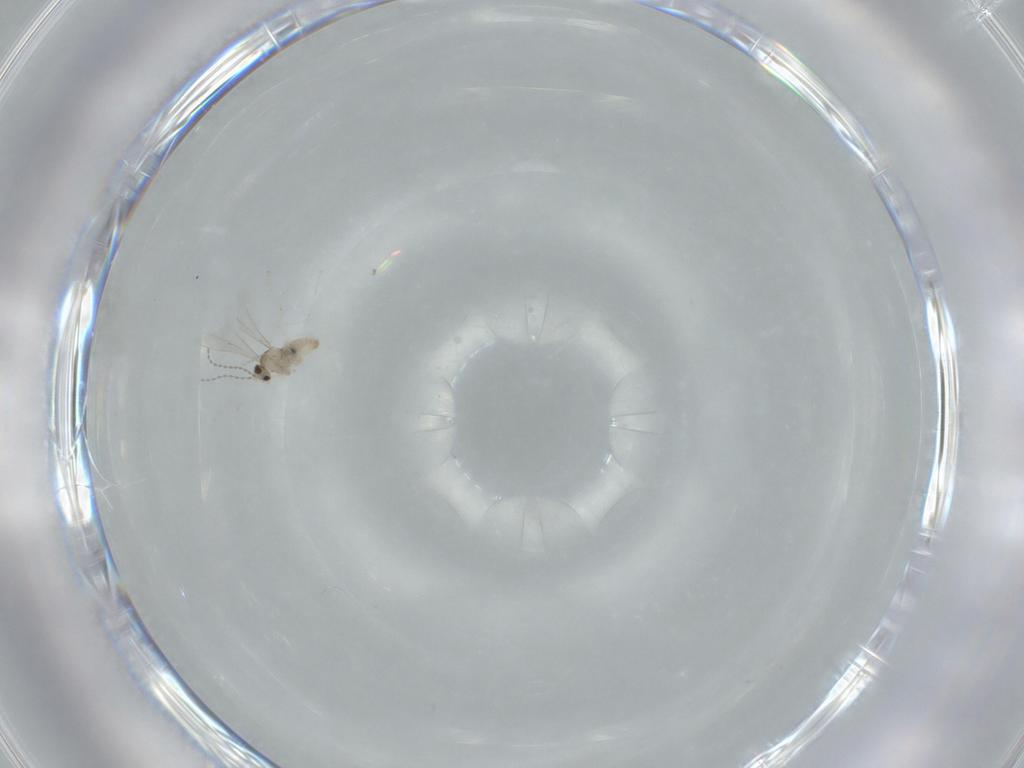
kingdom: Animalia
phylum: Arthropoda
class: Insecta
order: Diptera
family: Cecidomyiidae
